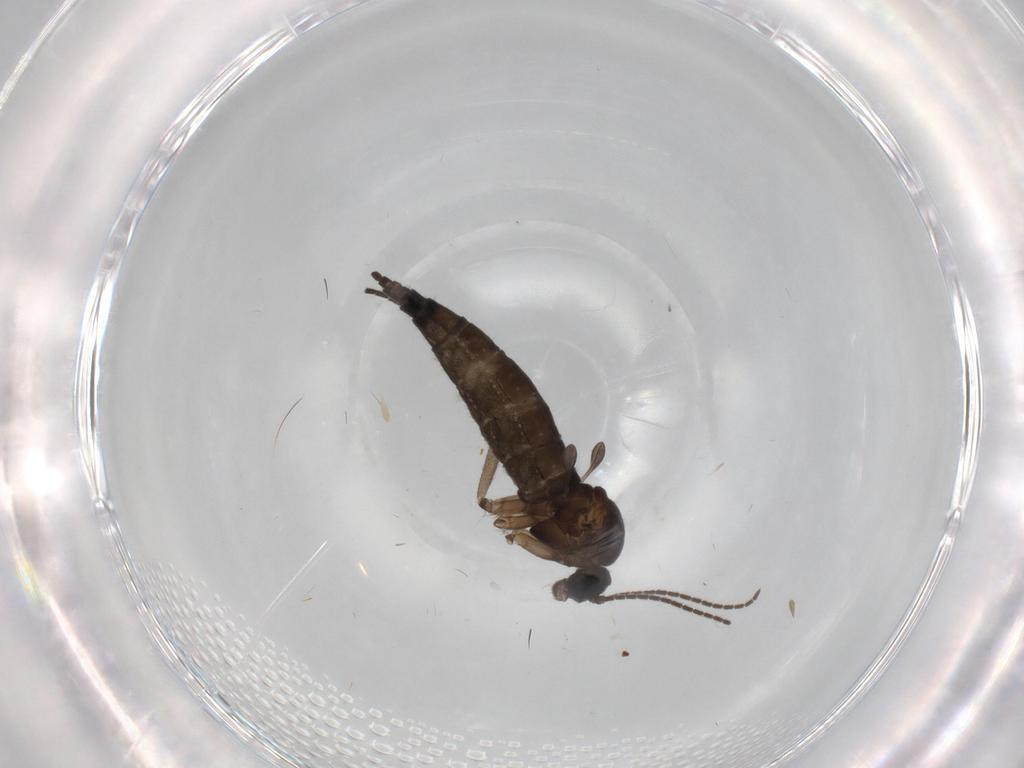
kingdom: Animalia
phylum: Arthropoda
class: Insecta
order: Diptera
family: Sciaridae
